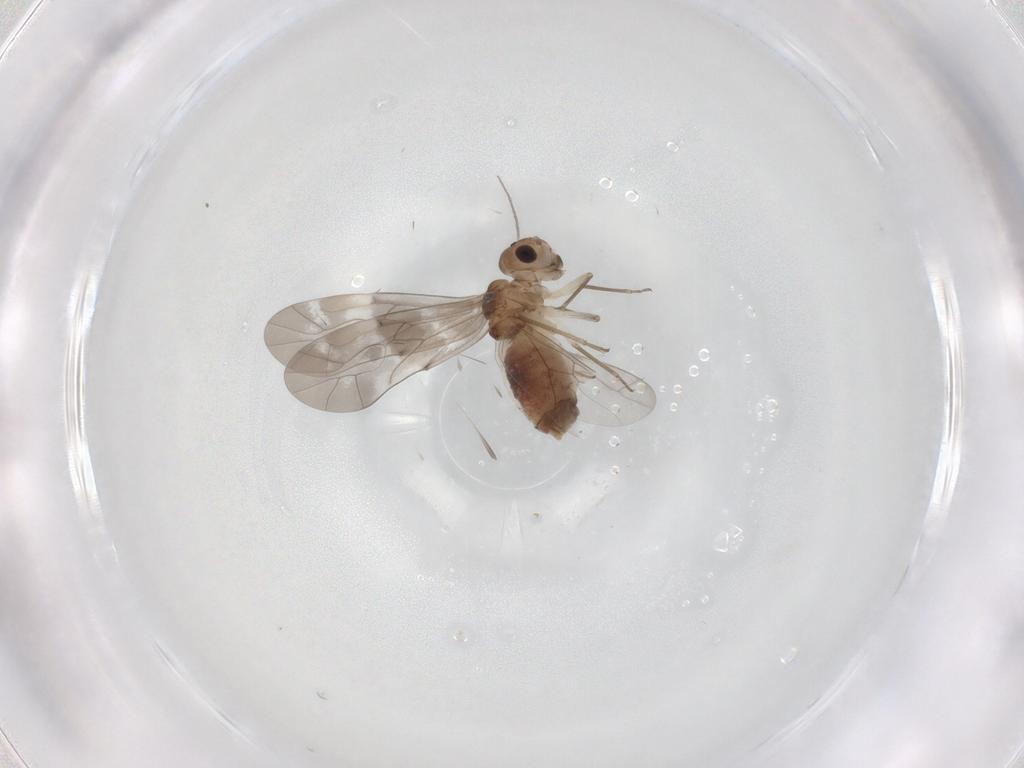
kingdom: Animalia
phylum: Arthropoda
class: Insecta
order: Psocodea
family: Peripsocidae
